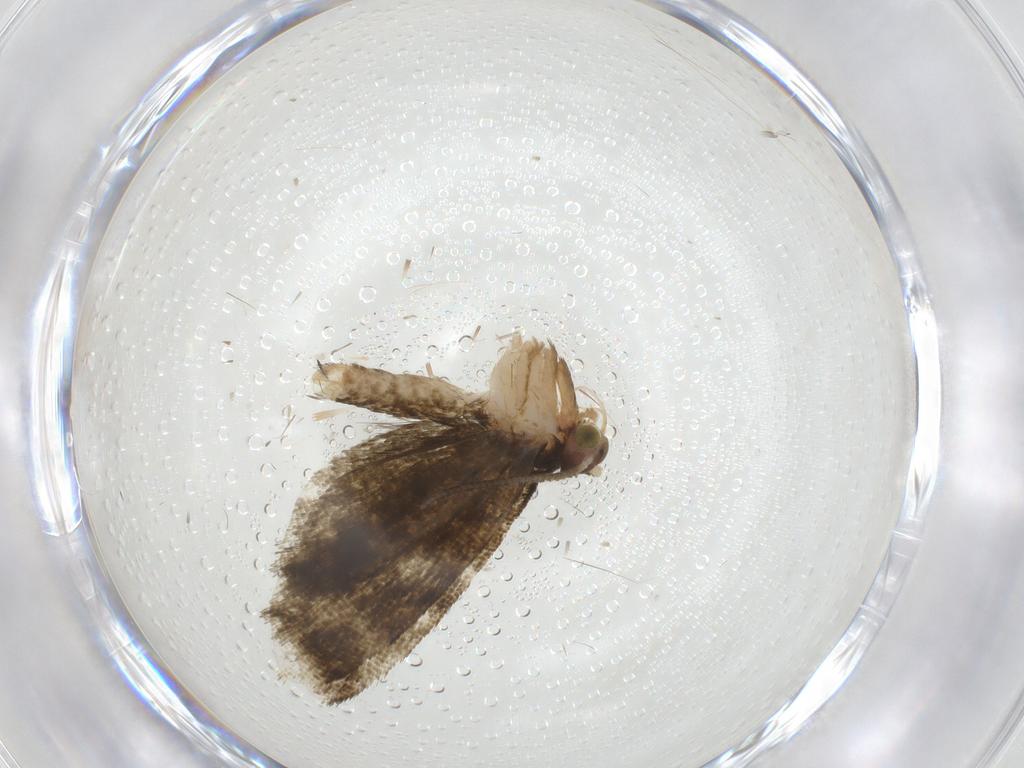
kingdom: Animalia
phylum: Arthropoda
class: Insecta
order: Lepidoptera
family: Tortricidae
